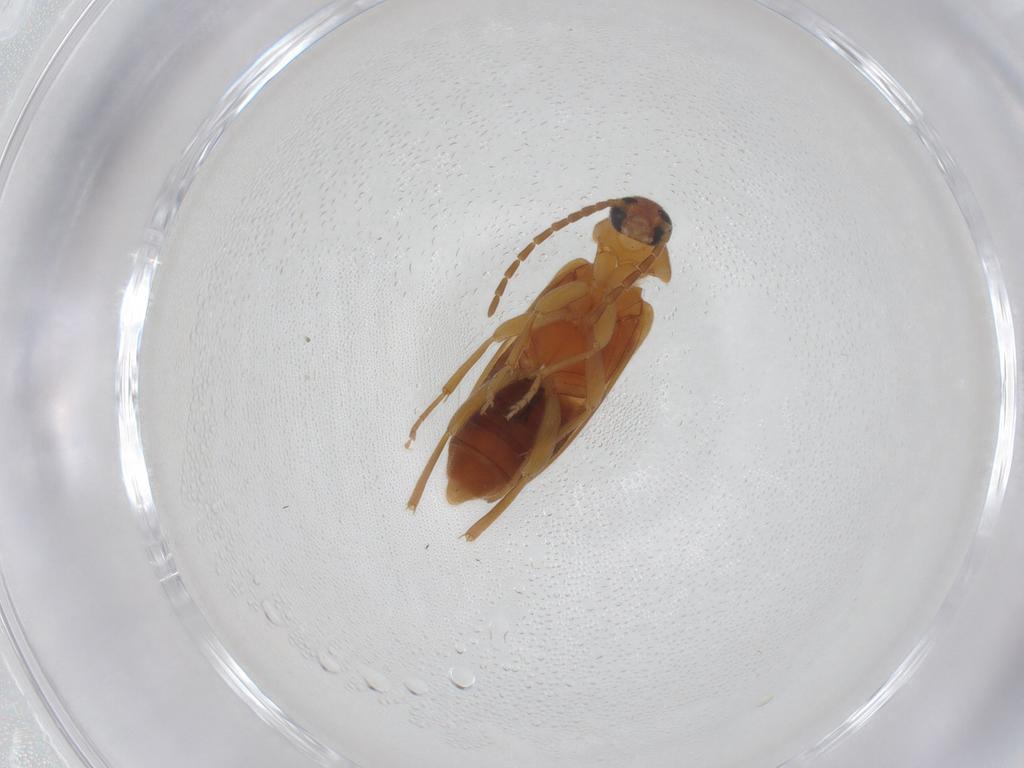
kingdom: Animalia
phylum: Arthropoda
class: Insecta
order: Coleoptera
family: Scraptiidae
